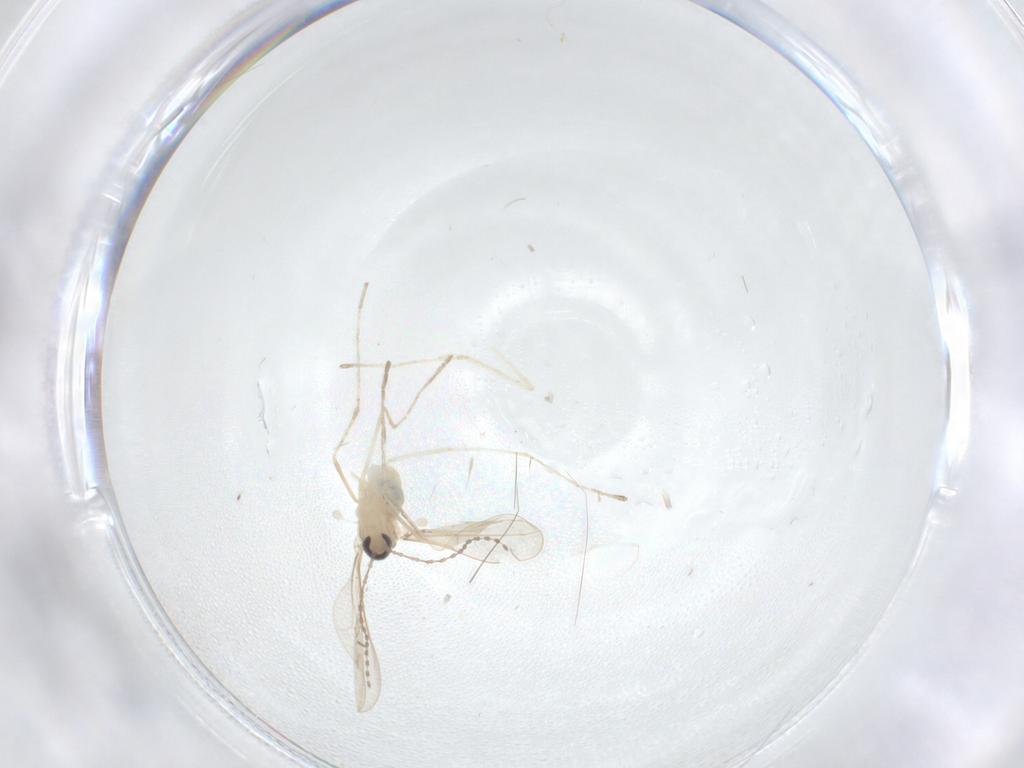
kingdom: Animalia
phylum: Arthropoda
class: Insecta
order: Diptera
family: Cecidomyiidae
